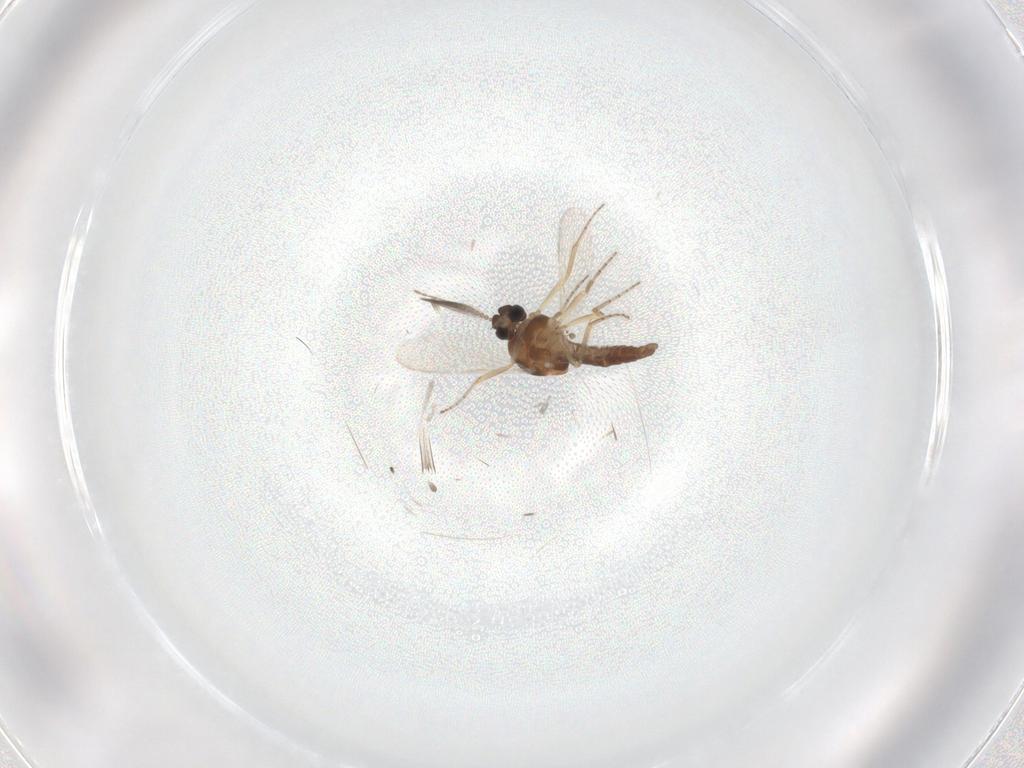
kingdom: Animalia
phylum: Arthropoda
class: Insecta
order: Diptera
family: Ceratopogonidae
